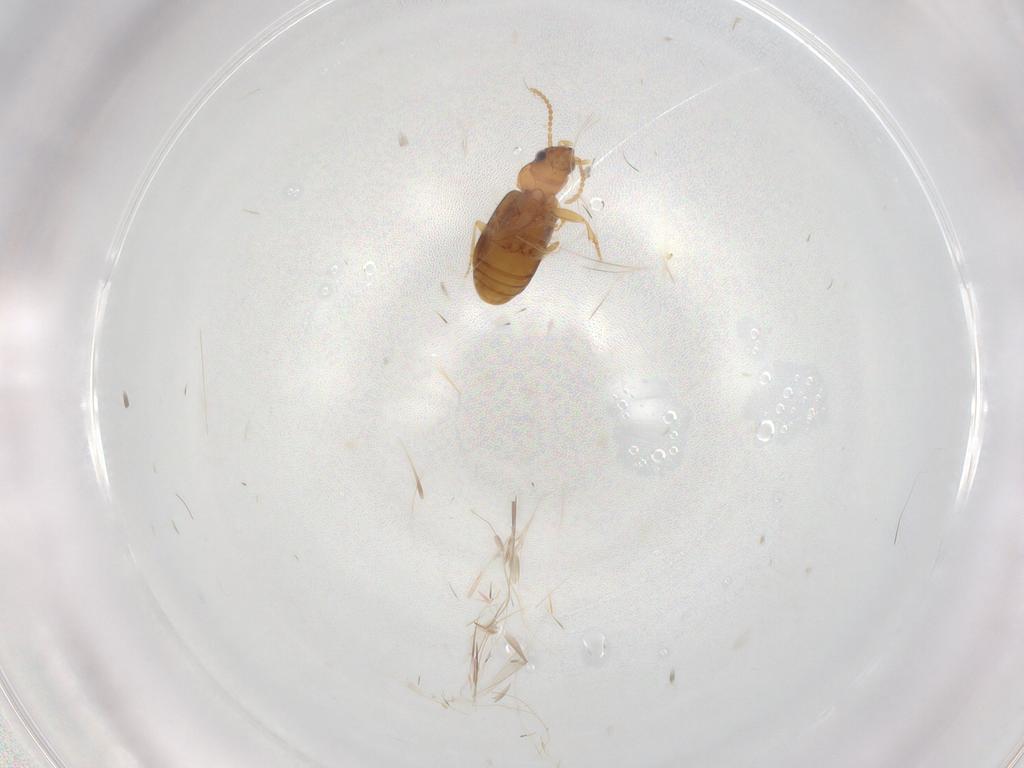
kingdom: Animalia
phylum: Arthropoda
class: Insecta
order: Coleoptera
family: Carabidae
